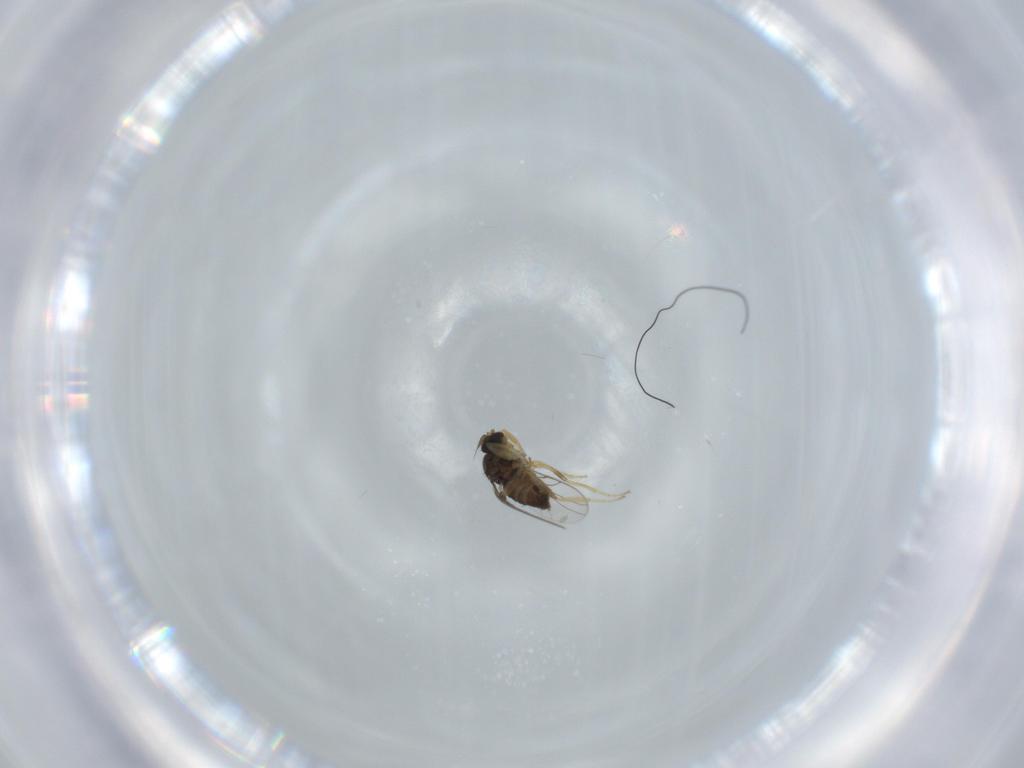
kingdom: Animalia
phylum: Arthropoda
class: Insecta
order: Diptera
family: Hybotidae
